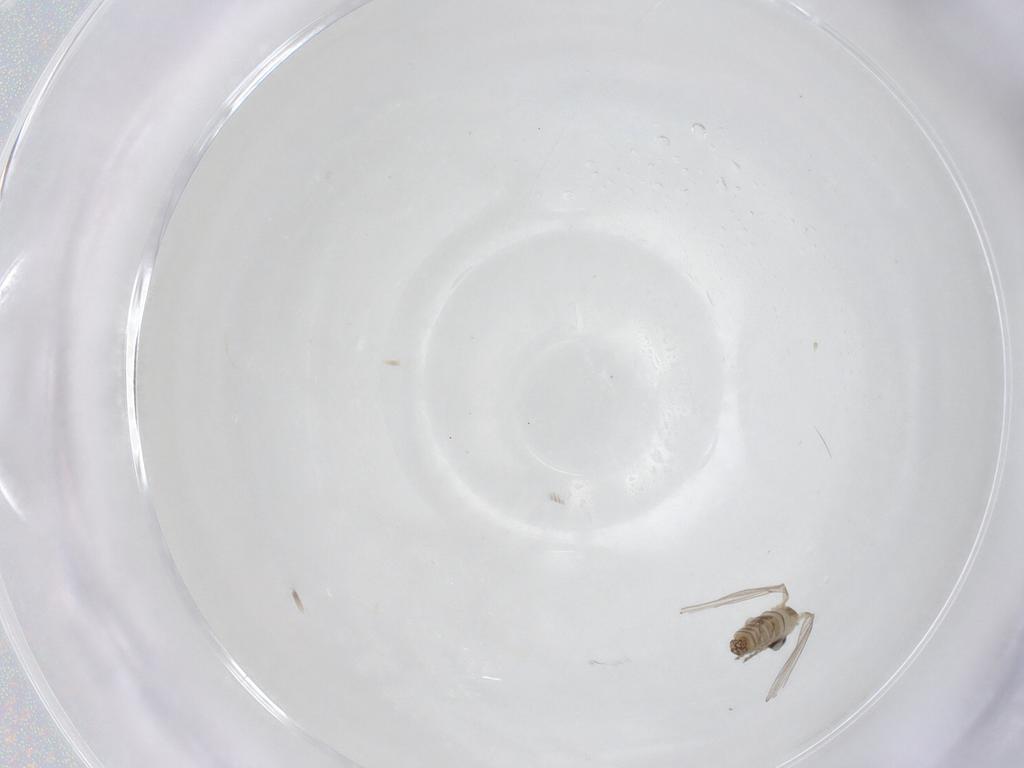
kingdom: Animalia
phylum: Arthropoda
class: Insecta
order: Diptera
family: Psychodidae
